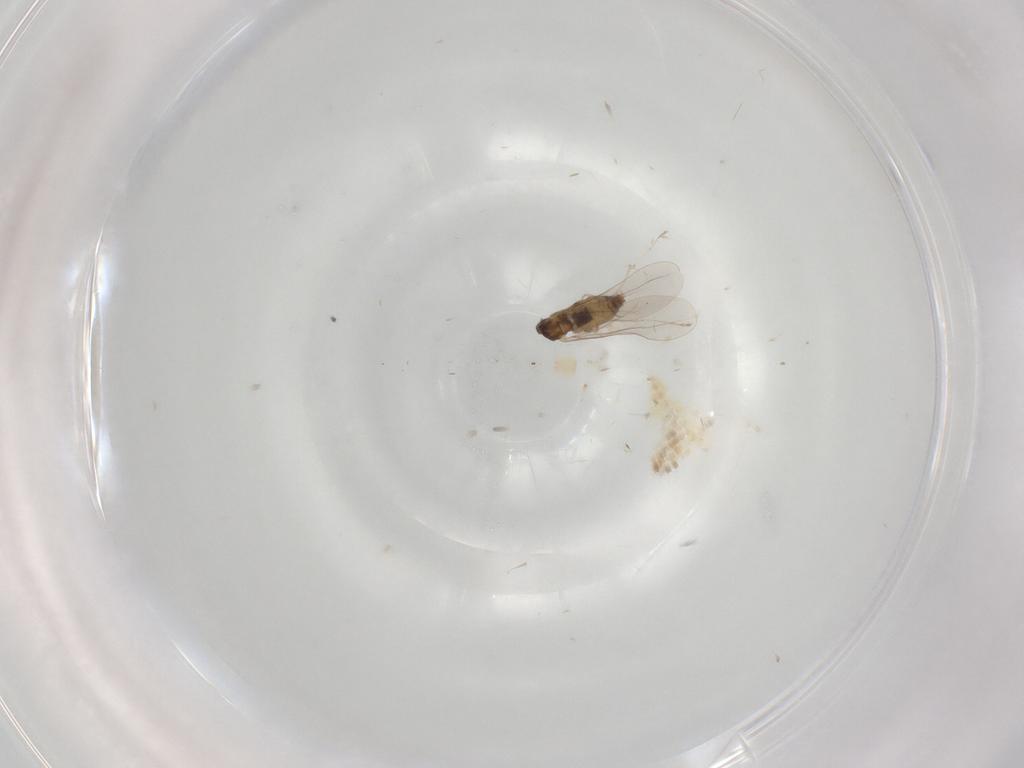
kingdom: Animalia
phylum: Arthropoda
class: Insecta
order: Diptera
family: Cecidomyiidae
